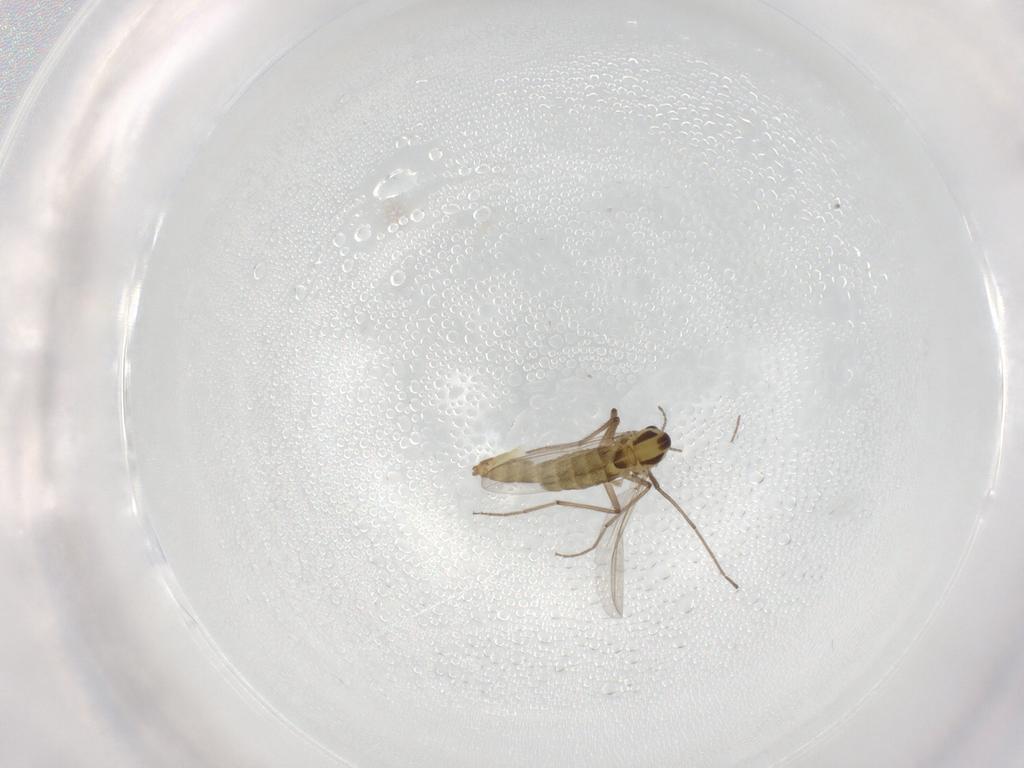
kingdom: Animalia
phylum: Arthropoda
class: Insecta
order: Diptera
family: Chironomidae
